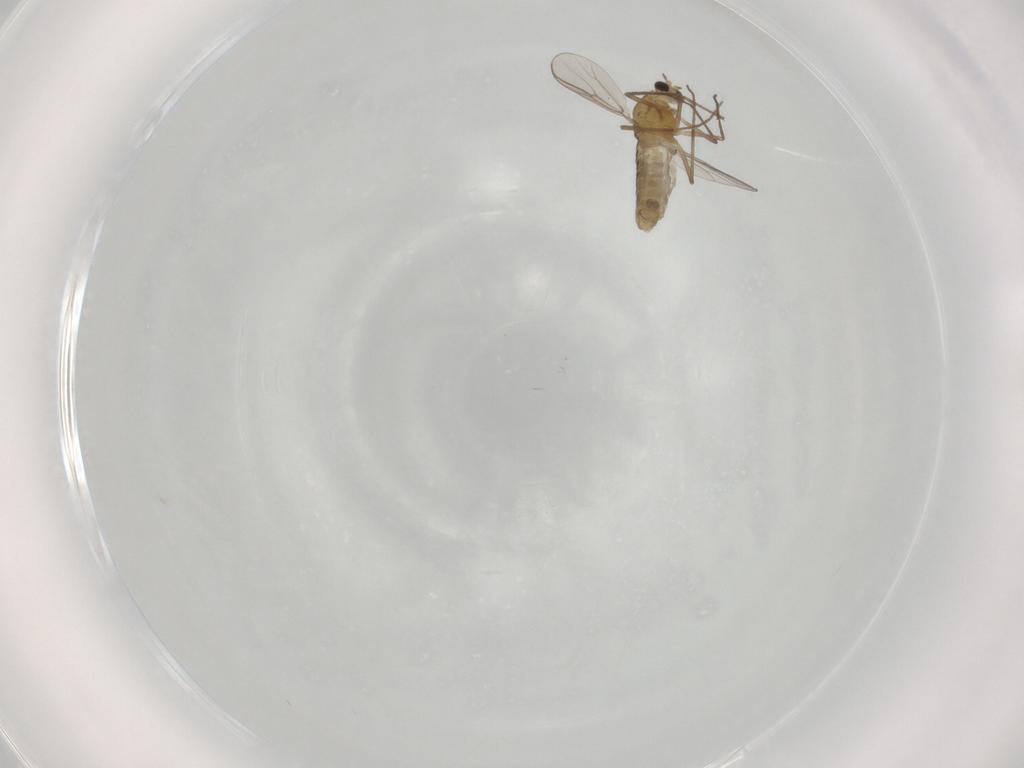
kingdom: Animalia
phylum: Arthropoda
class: Insecta
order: Diptera
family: Chironomidae
